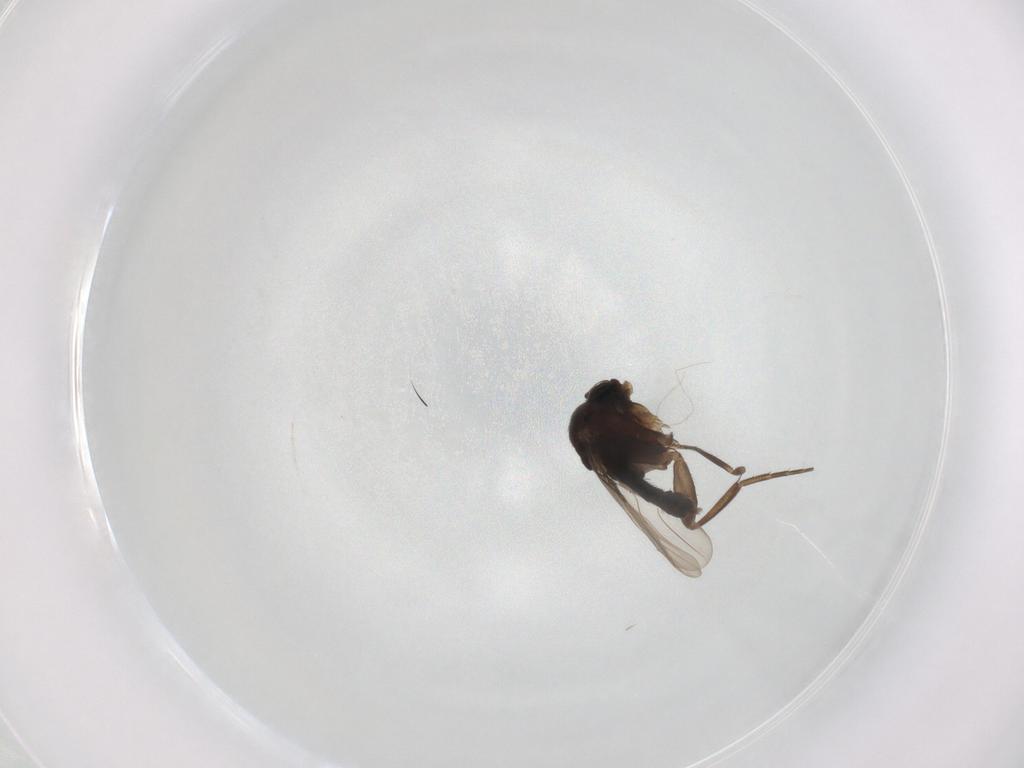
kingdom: Animalia
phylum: Arthropoda
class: Insecta
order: Diptera
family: Phoridae
